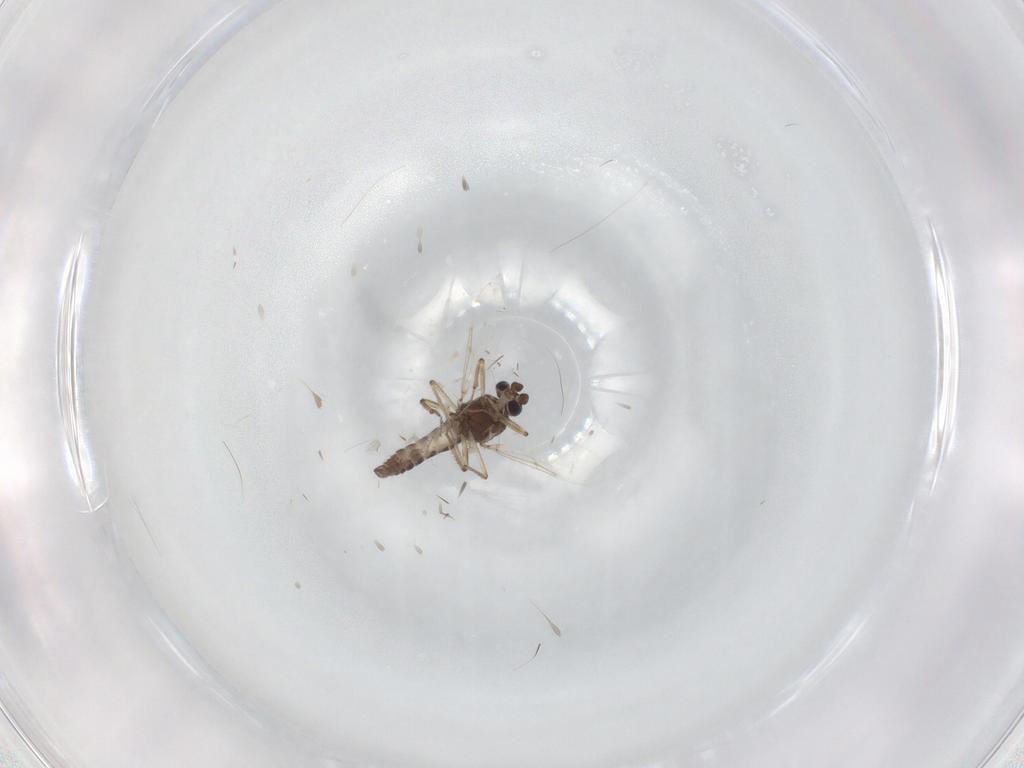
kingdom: Animalia
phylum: Arthropoda
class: Insecta
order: Diptera
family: Ceratopogonidae
